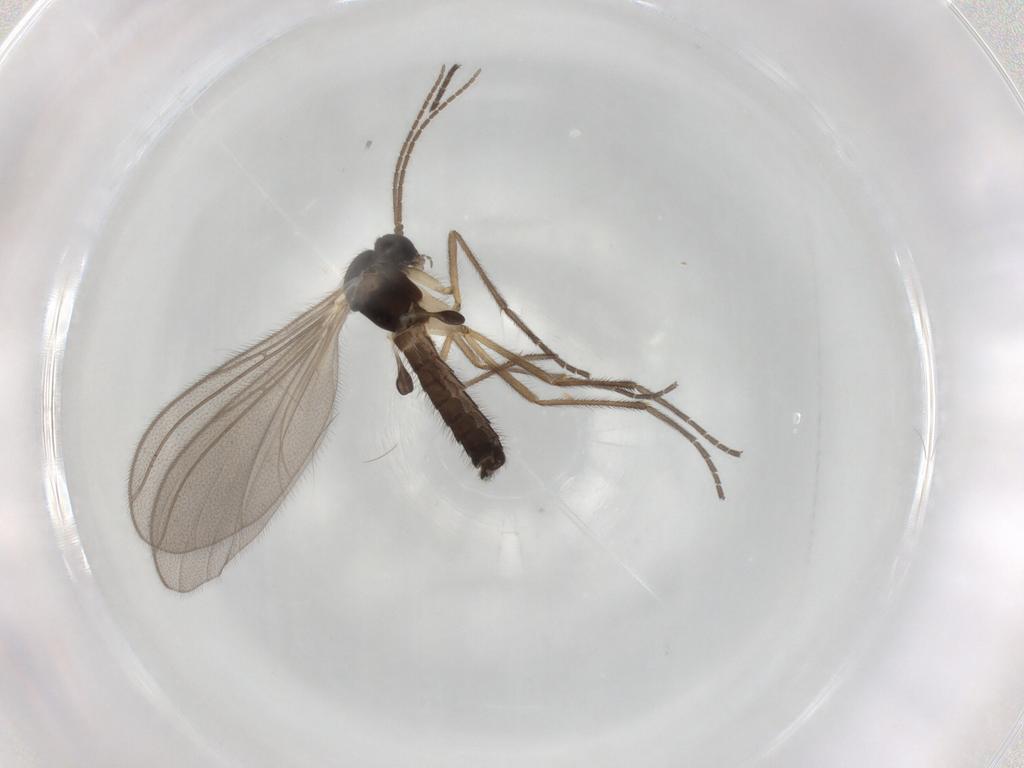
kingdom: Animalia
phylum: Arthropoda
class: Insecta
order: Diptera
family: Mycetophilidae
